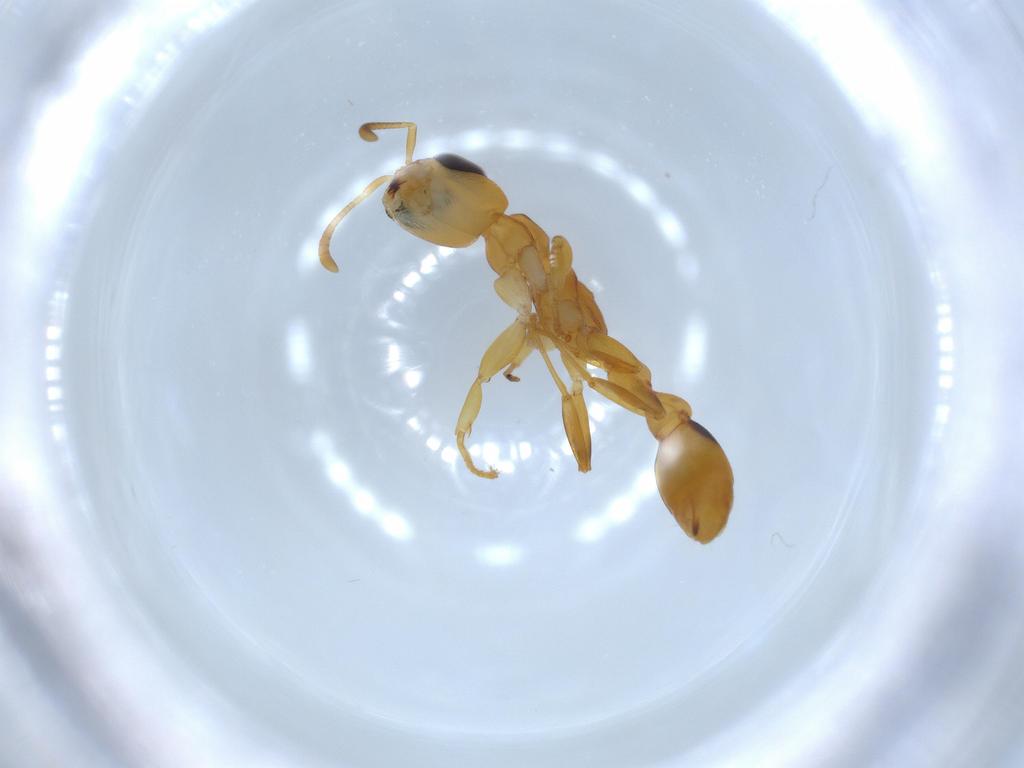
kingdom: Animalia
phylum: Arthropoda
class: Insecta
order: Hymenoptera
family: Formicidae
